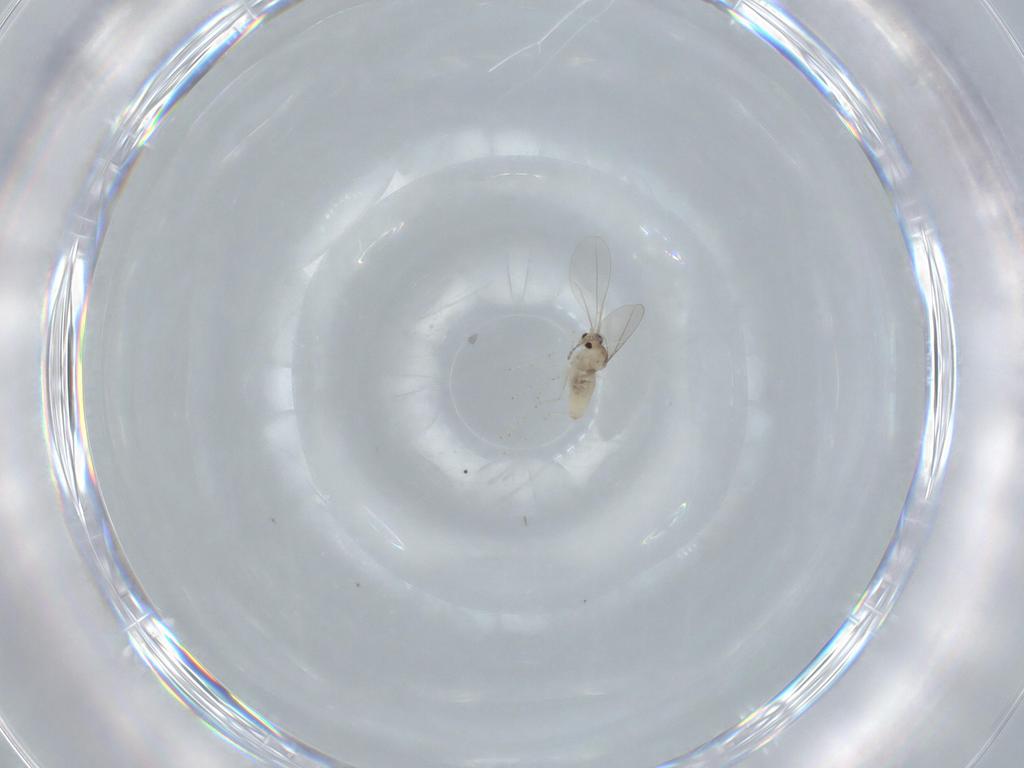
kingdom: Animalia
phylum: Arthropoda
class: Insecta
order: Diptera
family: Cecidomyiidae
